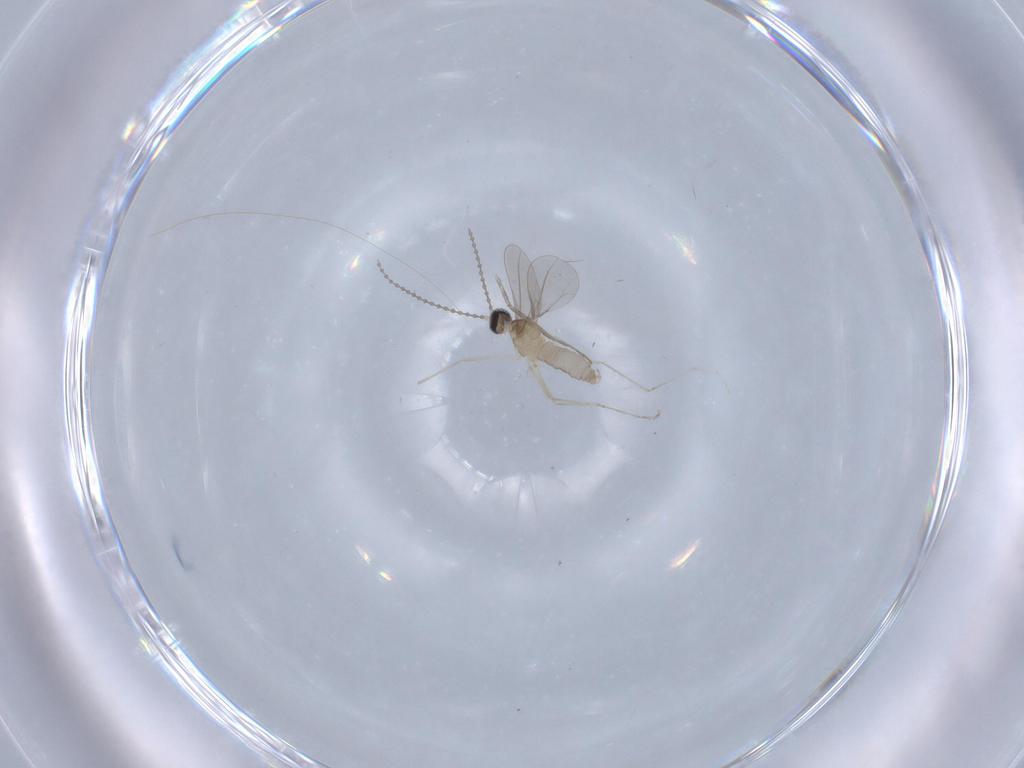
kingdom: Animalia
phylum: Arthropoda
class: Insecta
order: Diptera
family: Cecidomyiidae
